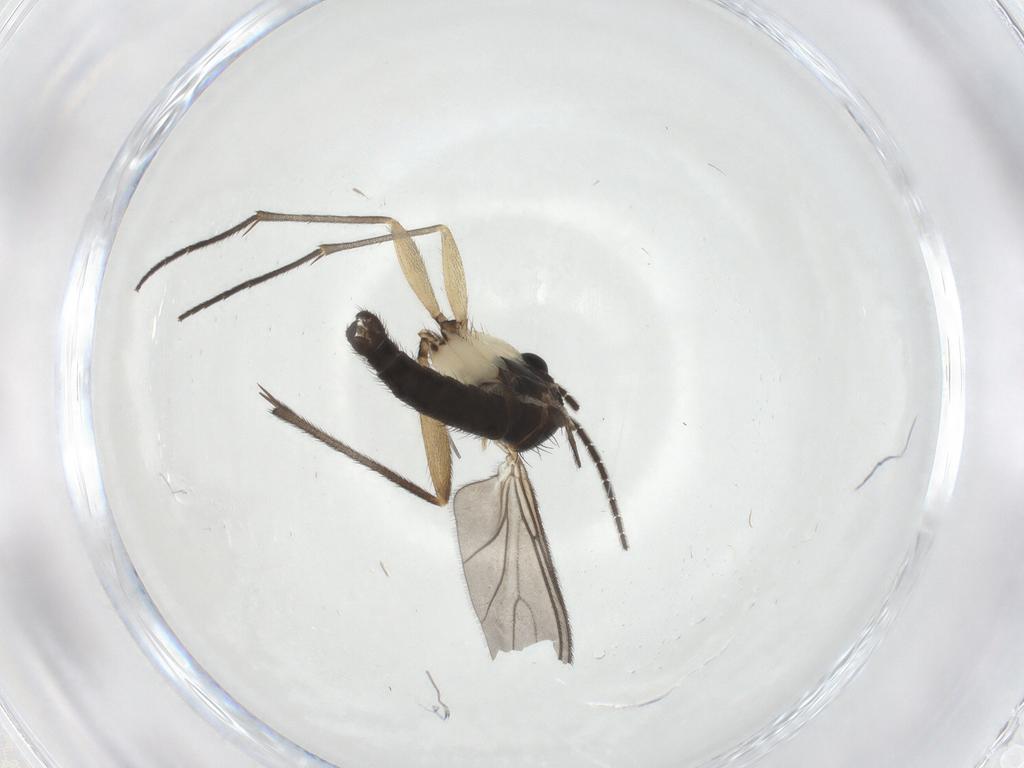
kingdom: Animalia
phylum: Arthropoda
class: Insecta
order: Diptera
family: Sciaridae
